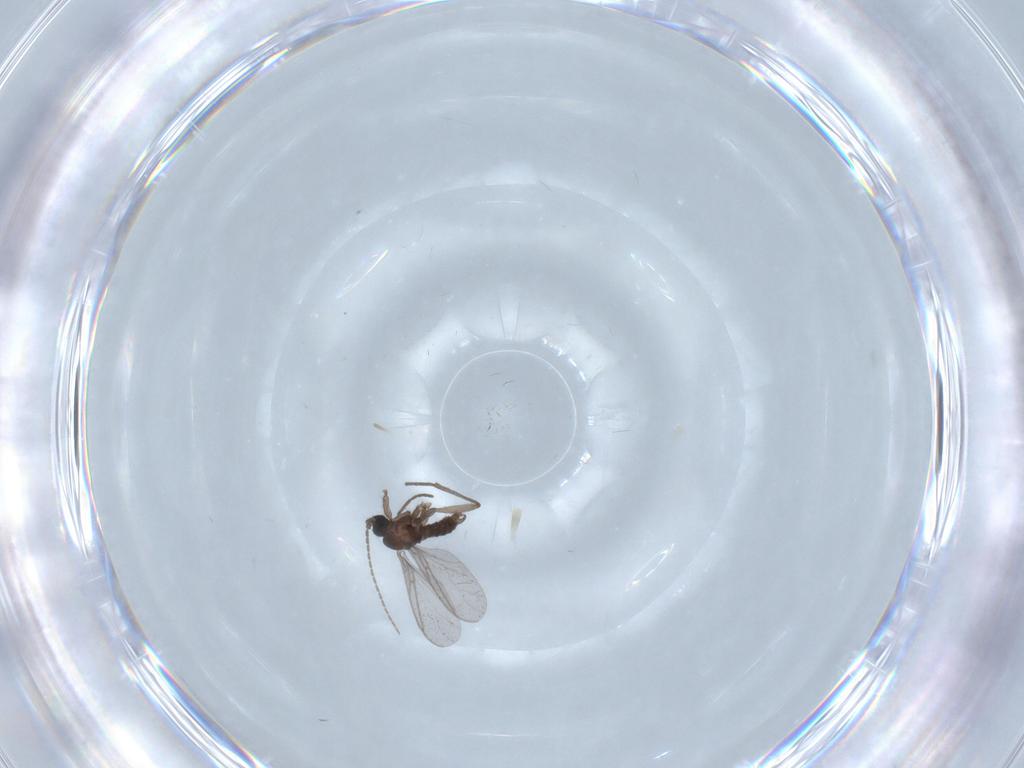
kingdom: Animalia
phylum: Arthropoda
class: Insecta
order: Diptera
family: Sciaridae
